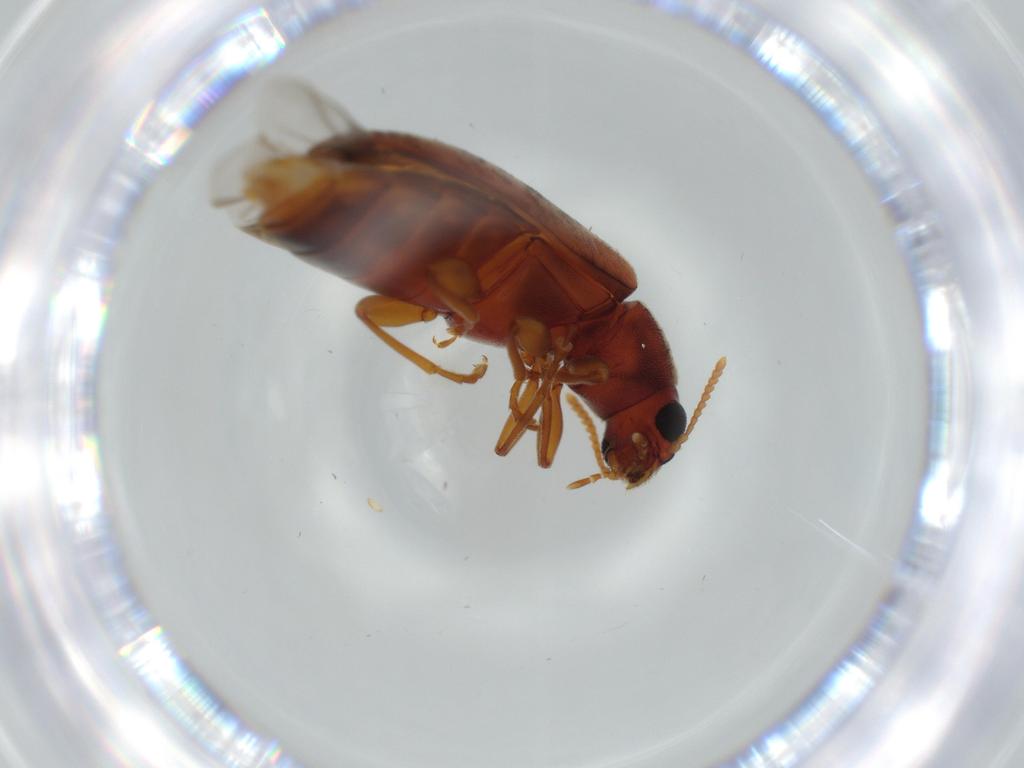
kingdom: Animalia
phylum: Arthropoda
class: Insecta
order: Coleoptera
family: Mycteridae
